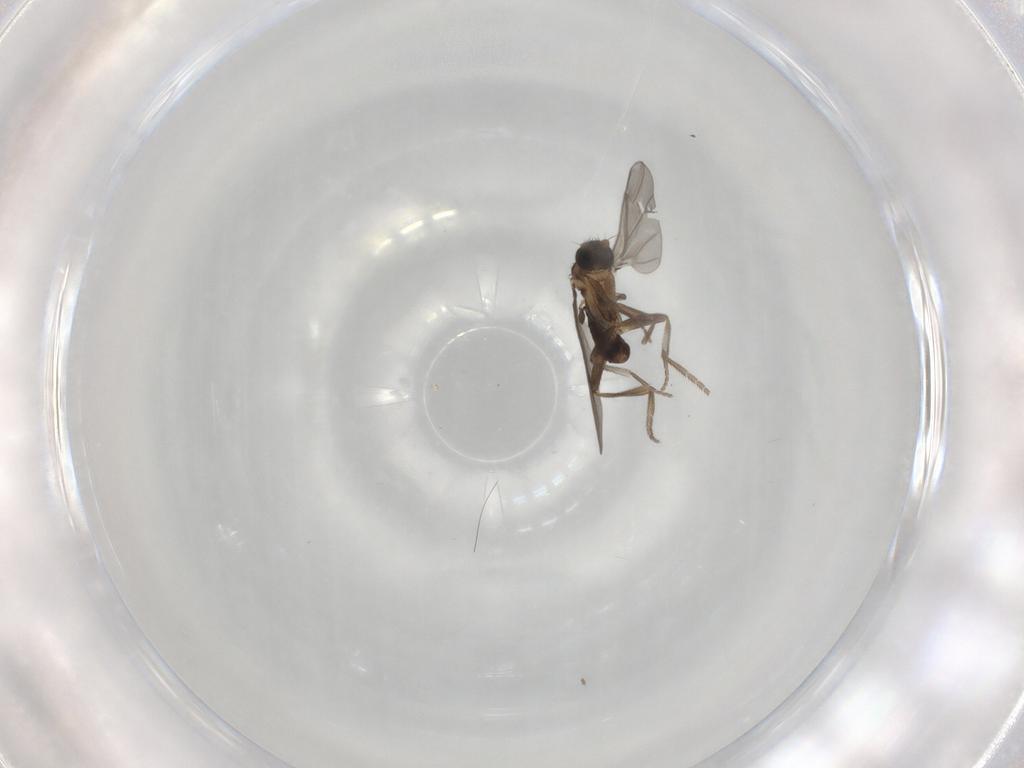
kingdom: Animalia
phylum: Arthropoda
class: Insecta
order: Diptera
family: Phoridae
